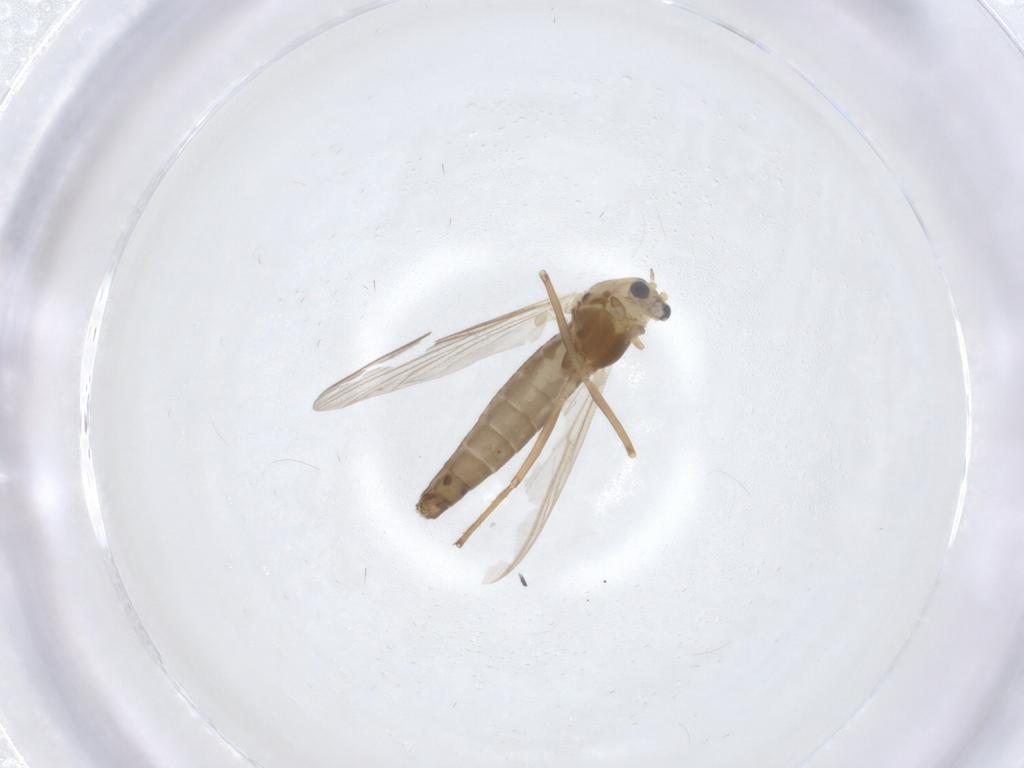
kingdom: Animalia
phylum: Arthropoda
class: Insecta
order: Diptera
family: Chironomidae
